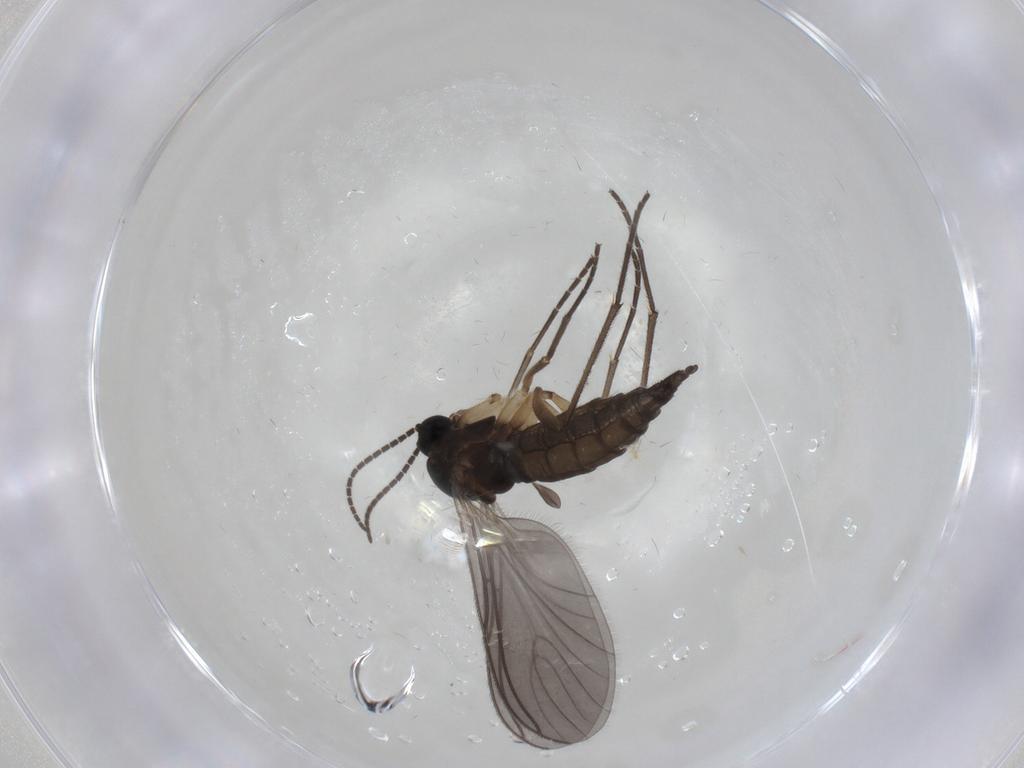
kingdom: Animalia
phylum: Arthropoda
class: Insecta
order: Diptera
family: Sciaridae
